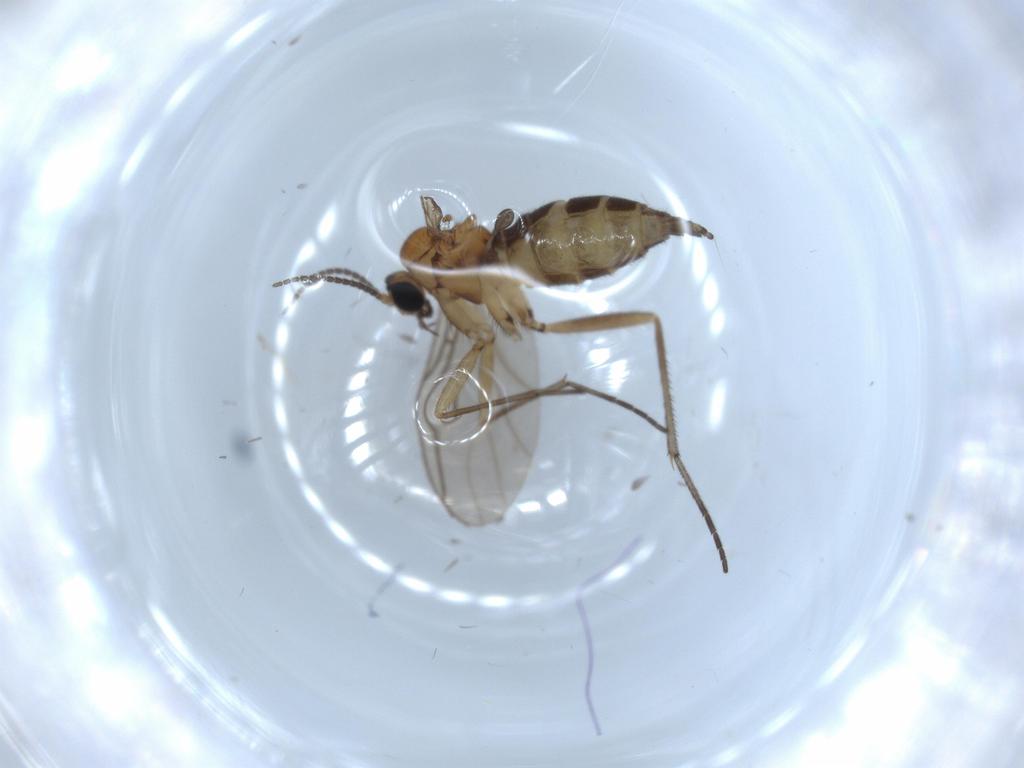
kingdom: Animalia
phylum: Arthropoda
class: Insecta
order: Diptera
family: Sciaridae
